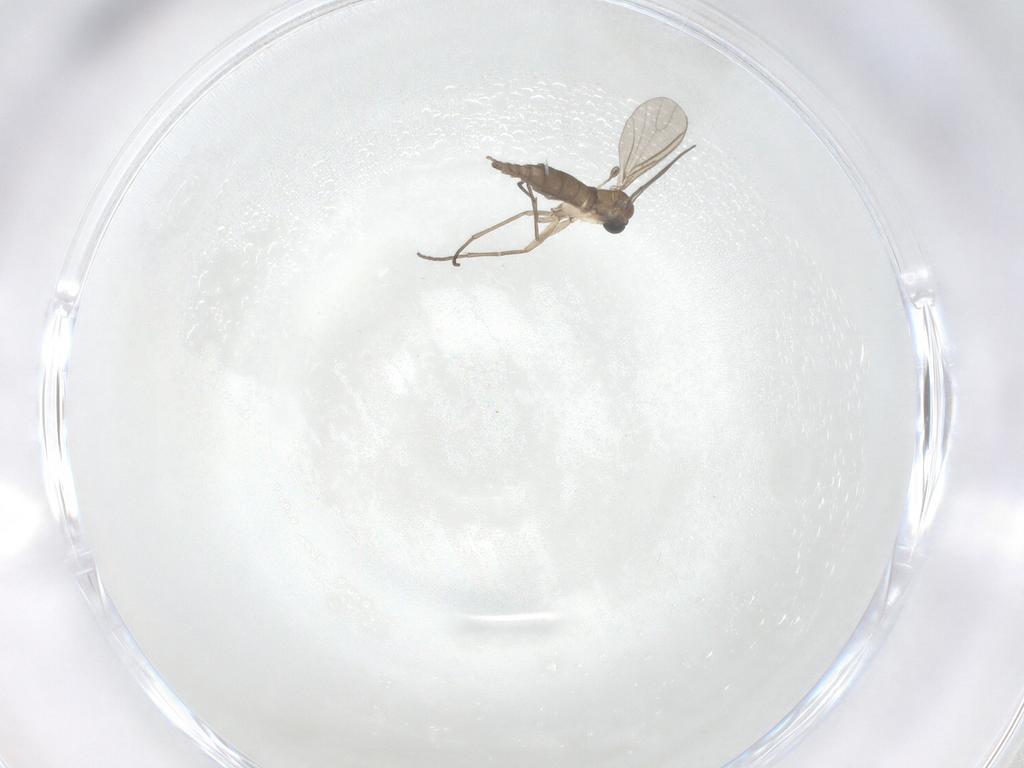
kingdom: Animalia
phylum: Arthropoda
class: Insecta
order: Diptera
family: Sciaridae
